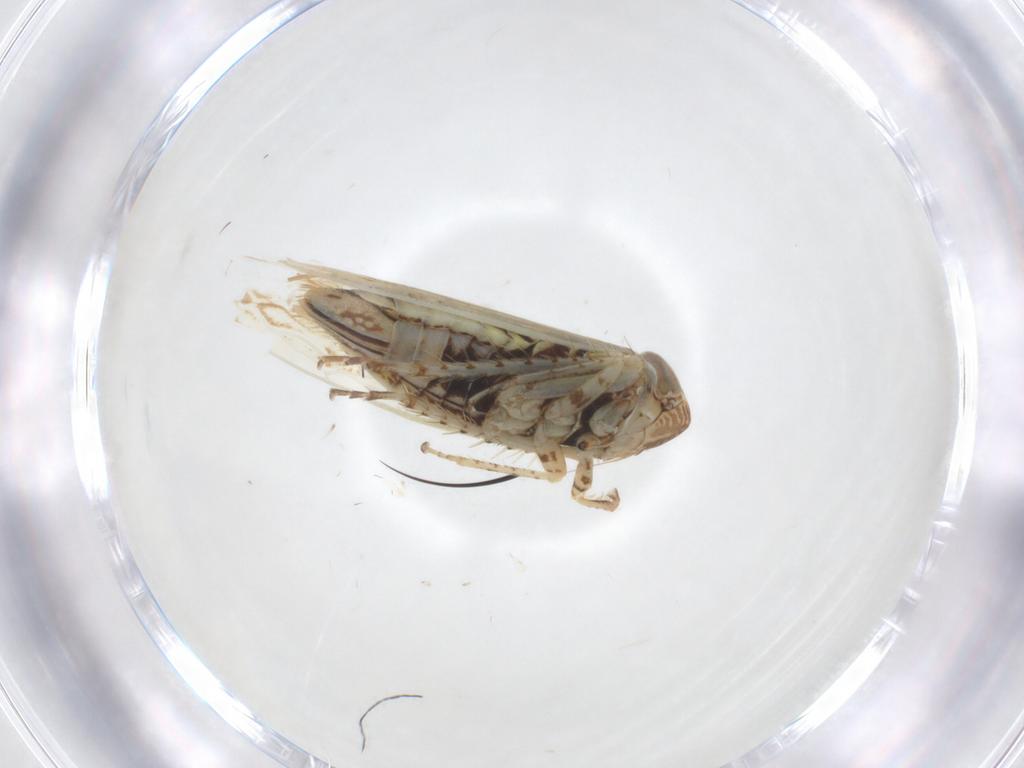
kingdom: Animalia
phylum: Arthropoda
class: Insecta
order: Hemiptera
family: Cicadellidae
